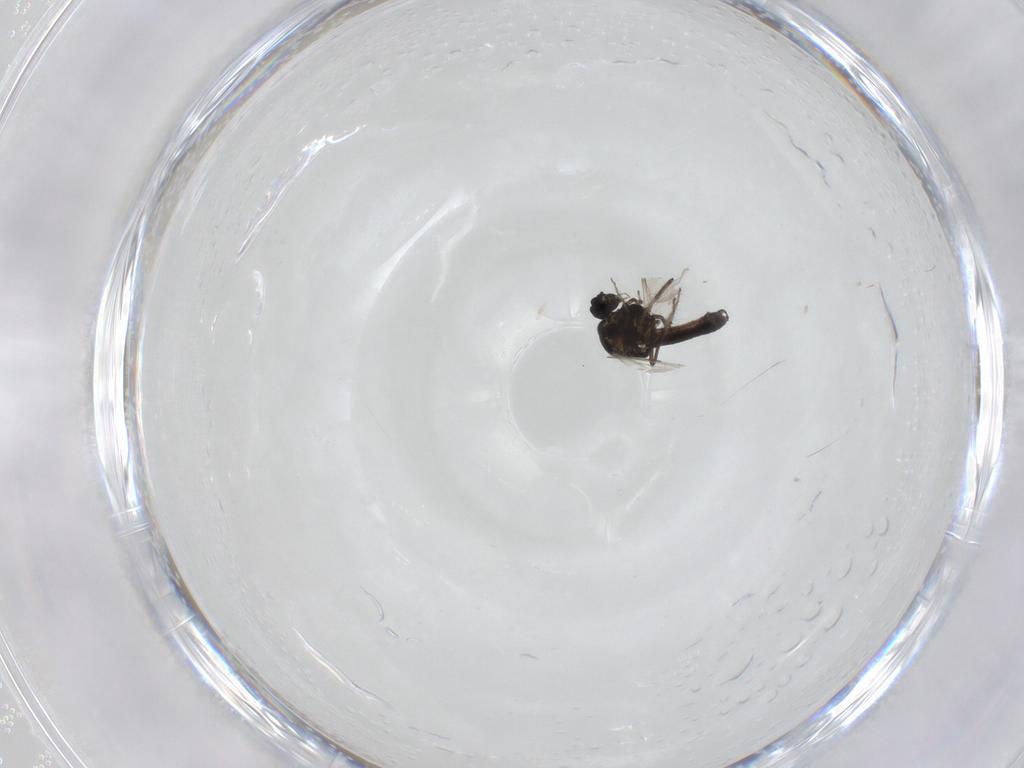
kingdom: Animalia
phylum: Arthropoda
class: Insecta
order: Diptera
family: Ceratopogonidae
